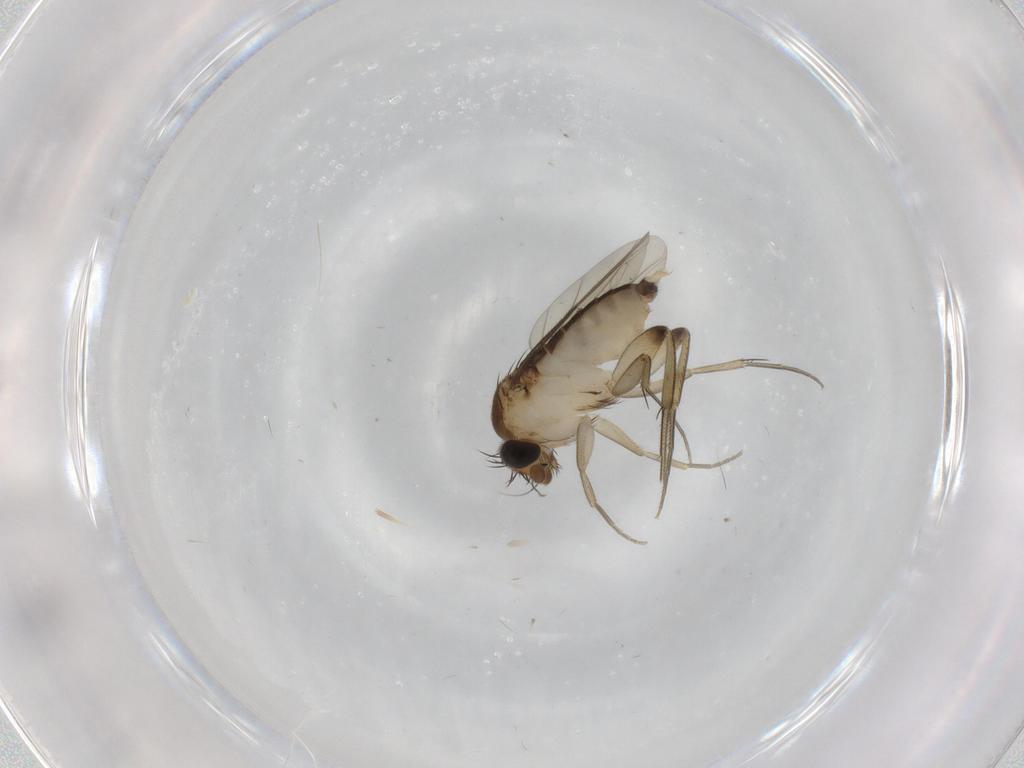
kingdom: Animalia
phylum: Arthropoda
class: Insecta
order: Diptera
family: Phoridae
